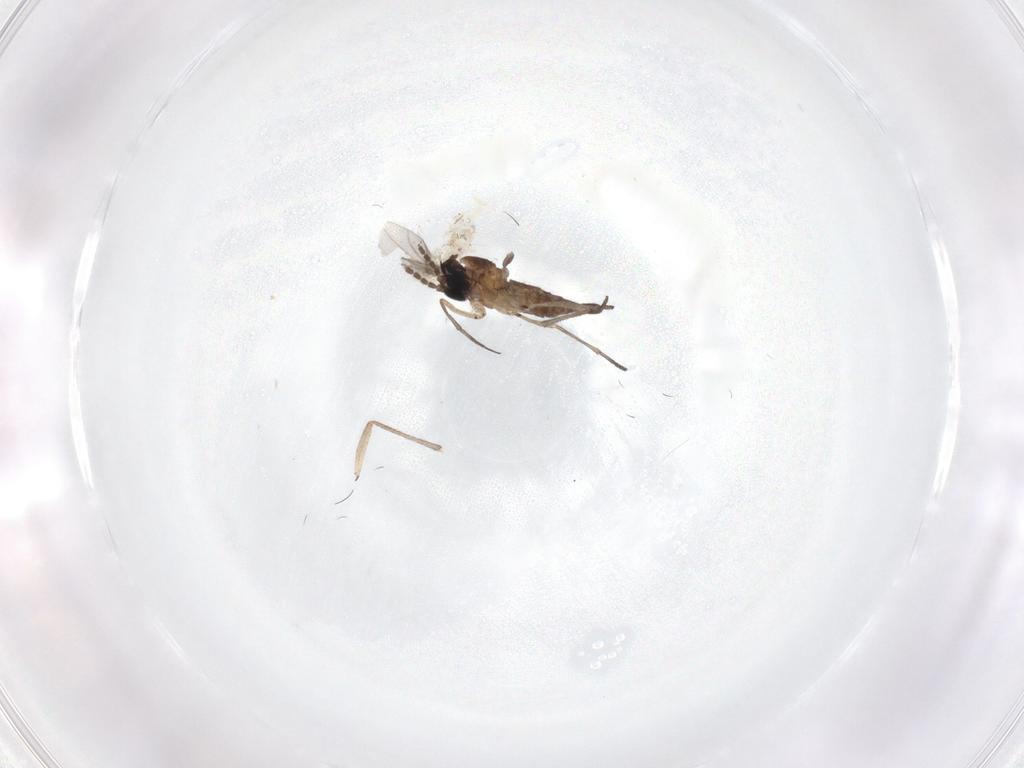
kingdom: Animalia
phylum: Arthropoda
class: Insecta
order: Diptera
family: Sciaridae
